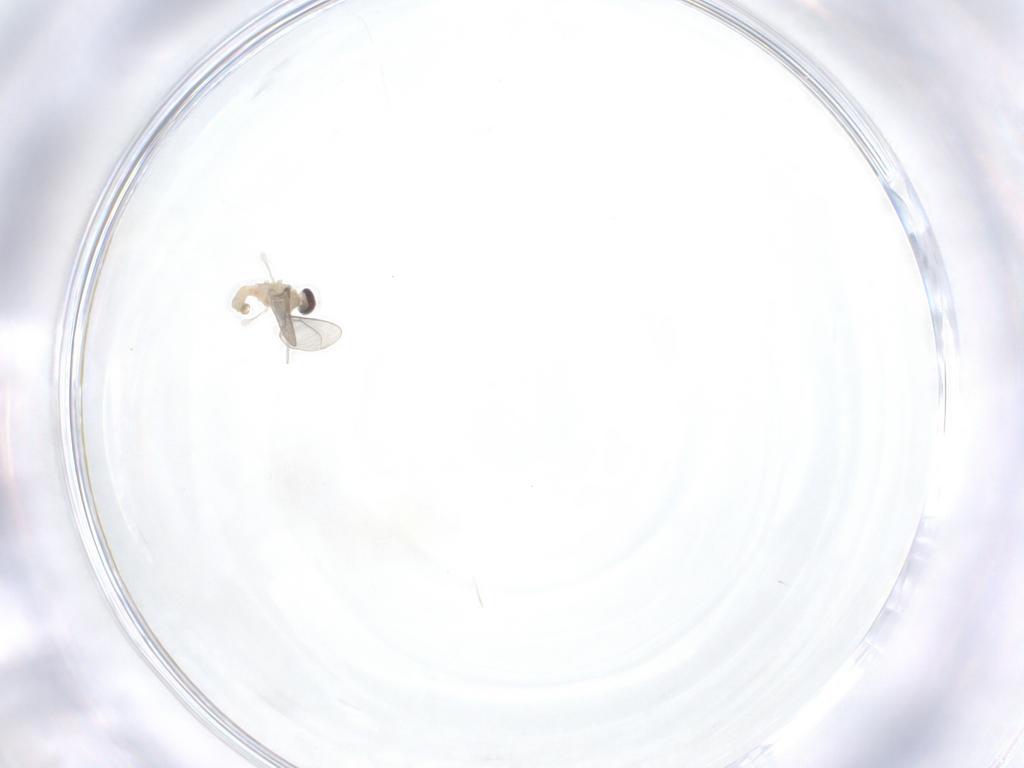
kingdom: Animalia
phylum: Arthropoda
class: Insecta
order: Diptera
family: Cecidomyiidae
